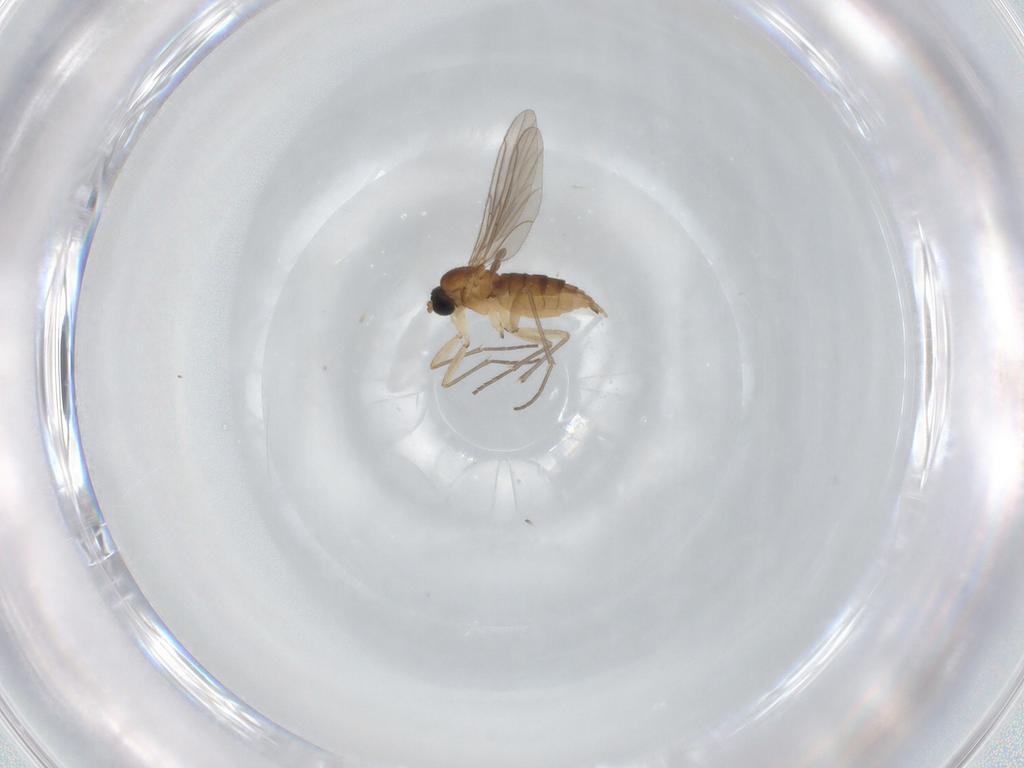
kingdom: Animalia
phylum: Arthropoda
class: Insecta
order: Diptera
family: Sciaridae
